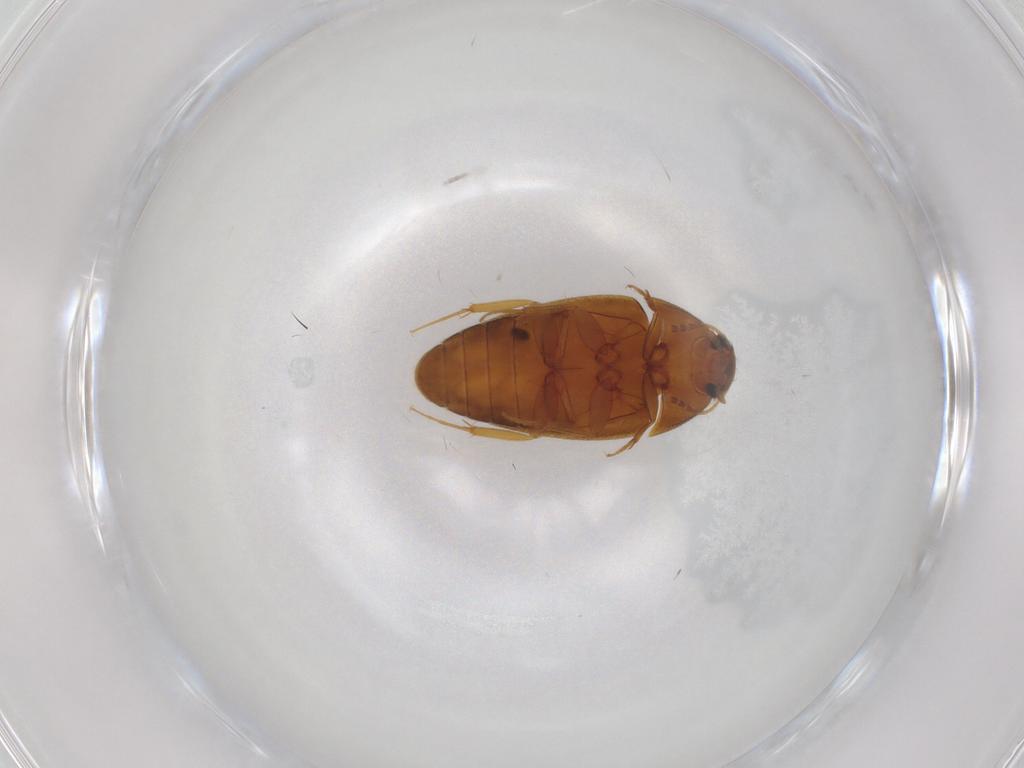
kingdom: Animalia
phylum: Arthropoda
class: Insecta
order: Coleoptera
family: Mycetophagidae
